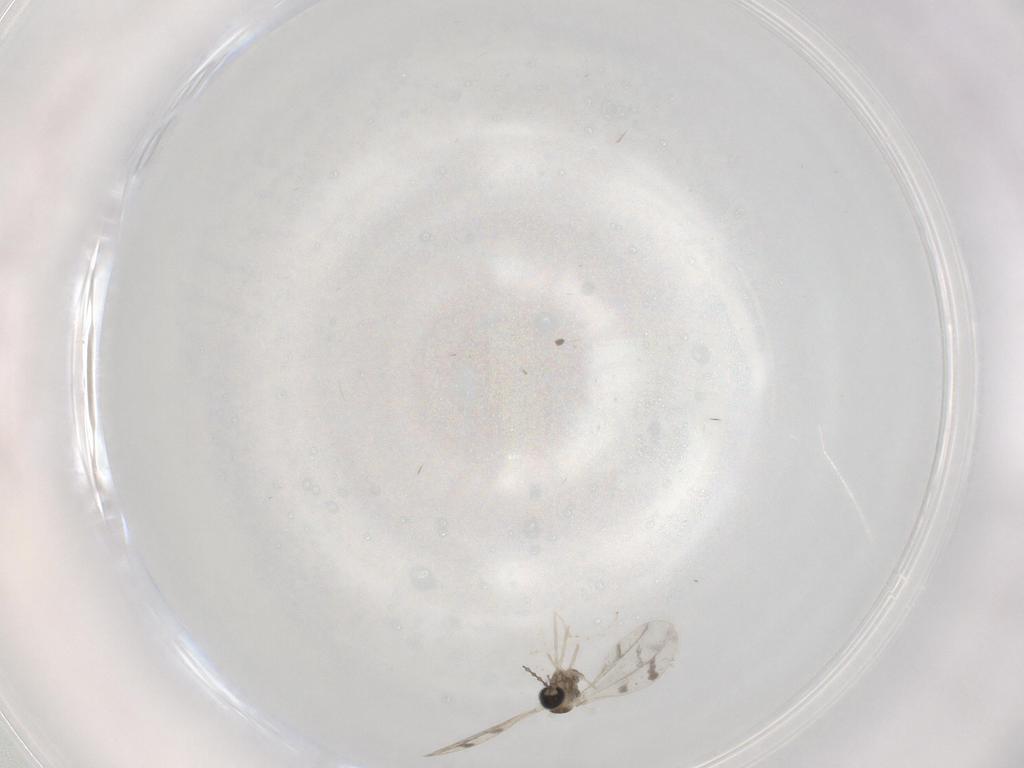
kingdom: Animalia
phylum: Arthropoda
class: Insecta
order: Diptera
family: Cecidomyiidae
